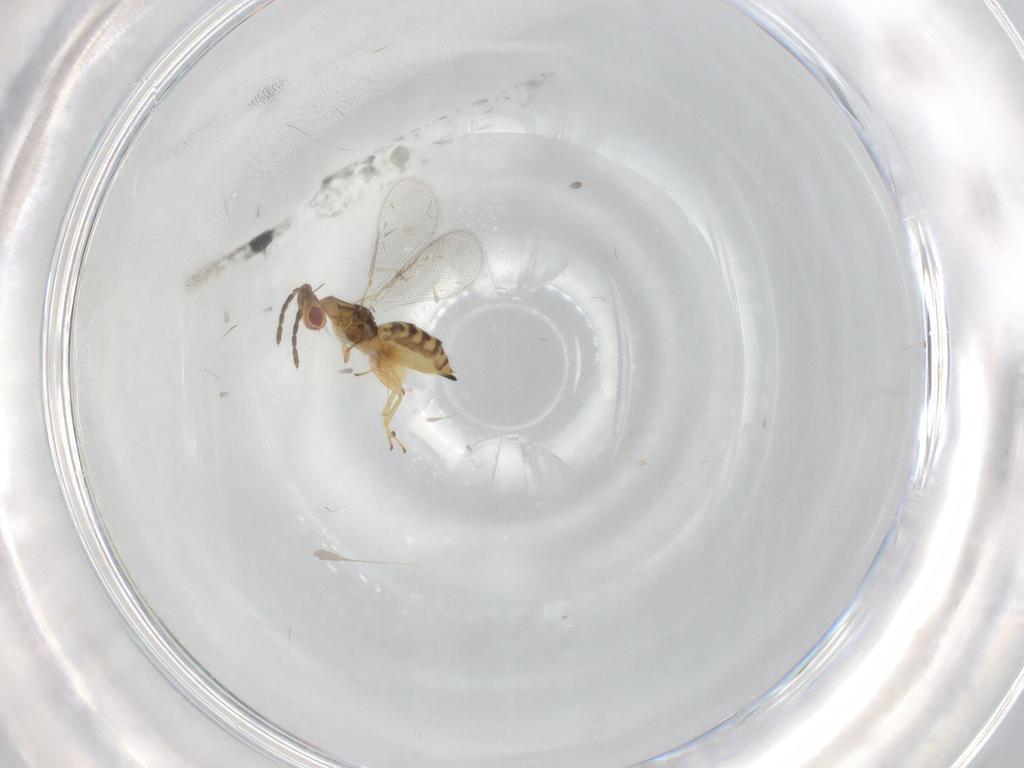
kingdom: Animalia
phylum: Arthropoda
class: Insecta
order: Hymenoptera
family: Eulophidae
